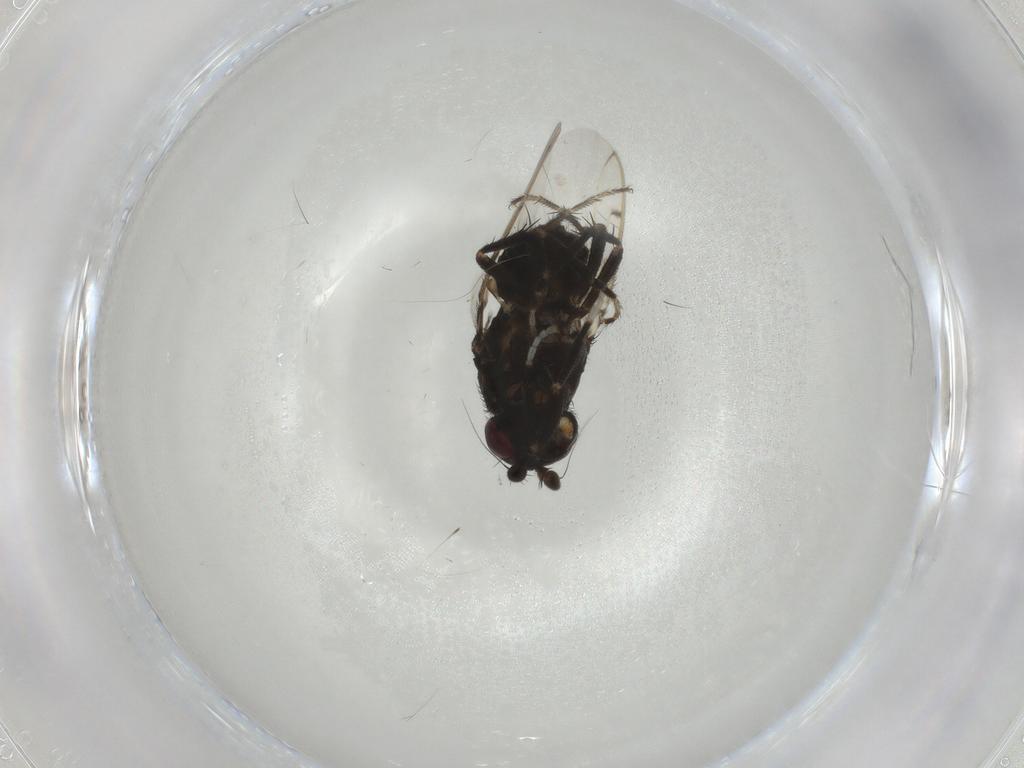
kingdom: Animalia
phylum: Arthropoda
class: Insecta
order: Diptera
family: Sphaeroceridae
